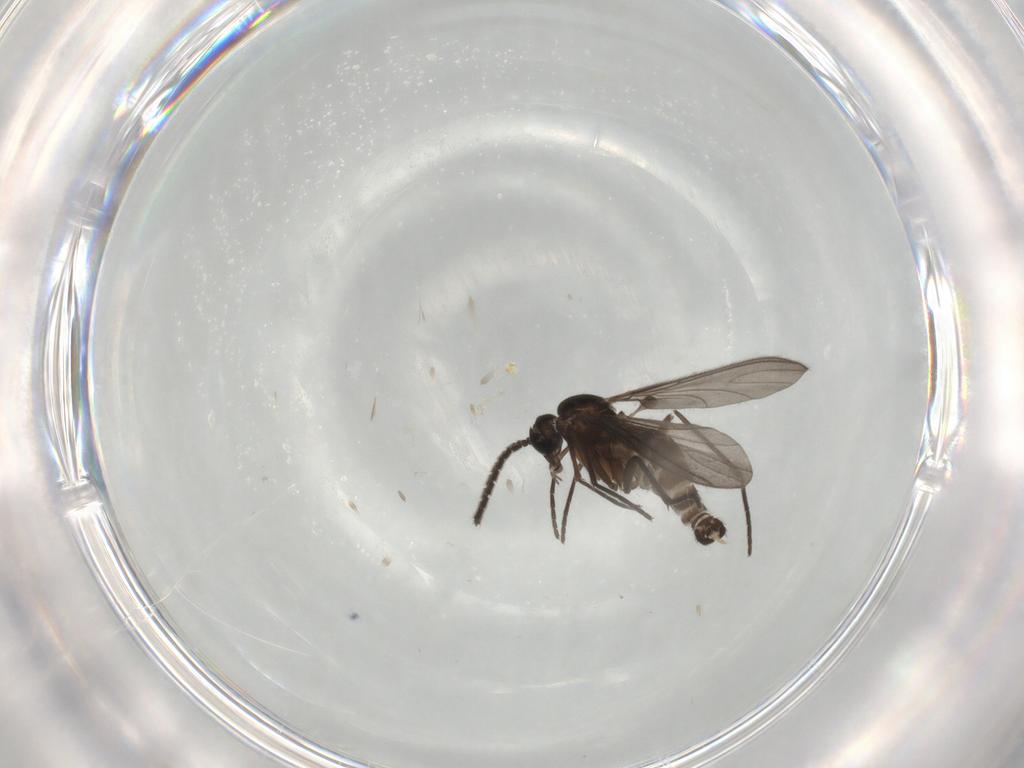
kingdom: Animalia
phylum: Arthropoda
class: Insecta
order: Diptera
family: Sciaridae
